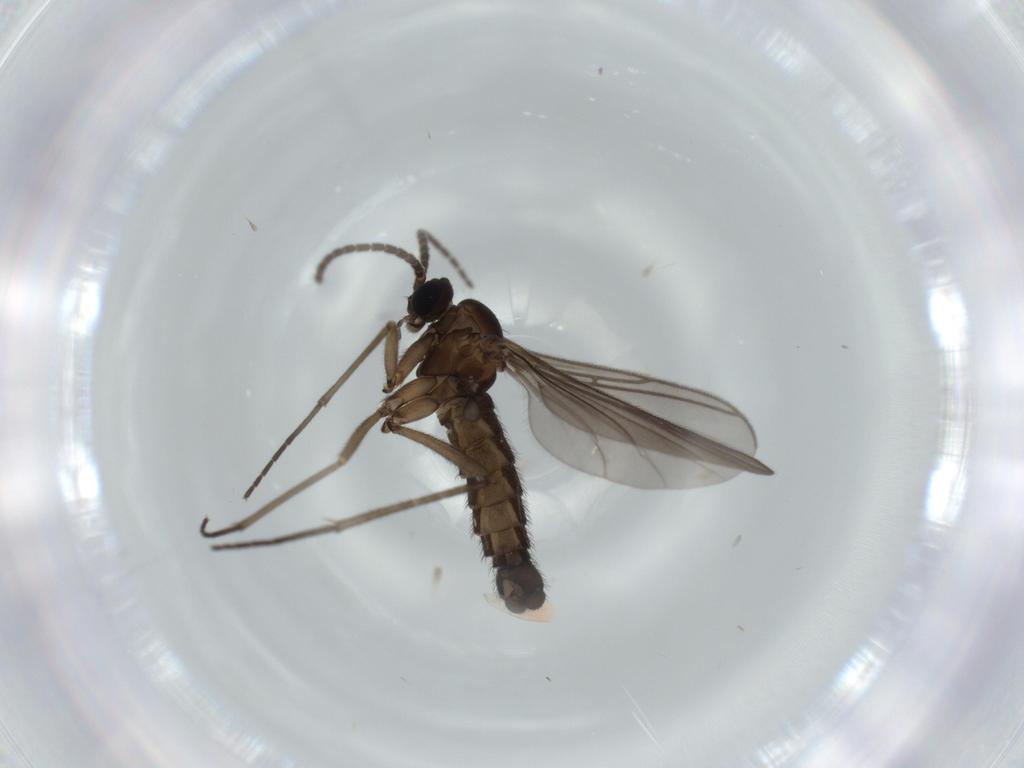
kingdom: Animalia
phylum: Arthropoda
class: Insecta
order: Diptera
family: Sciaridae
